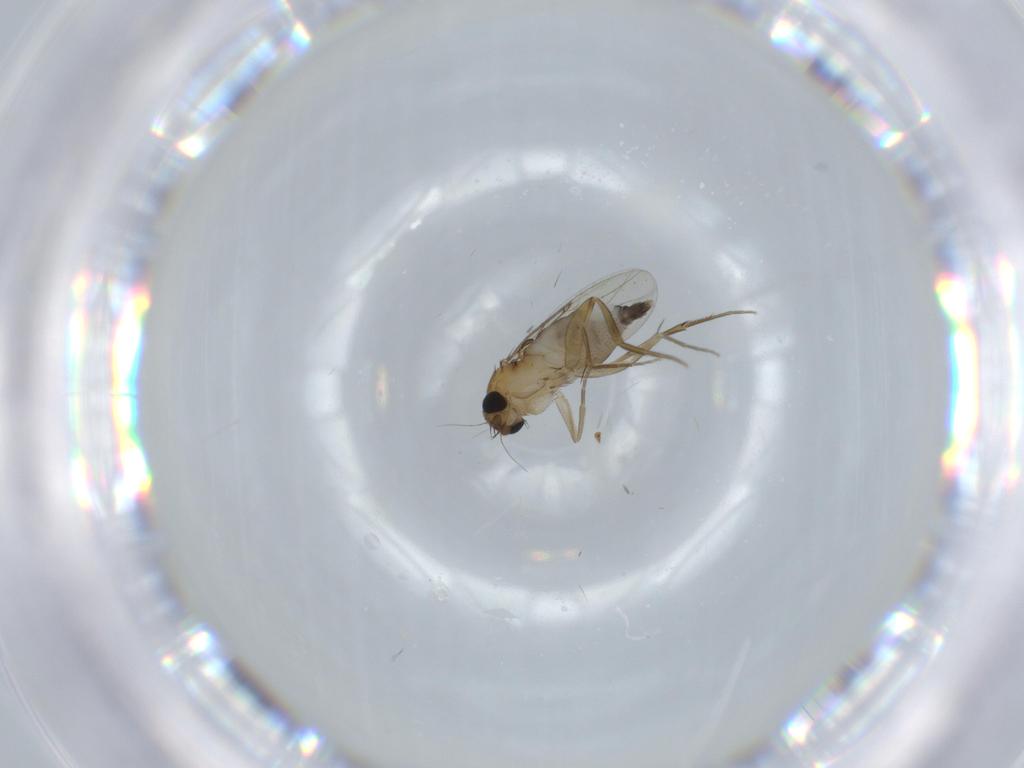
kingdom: Animalia
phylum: Arthropoda
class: Insecta
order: Diptera
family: Phoridae
